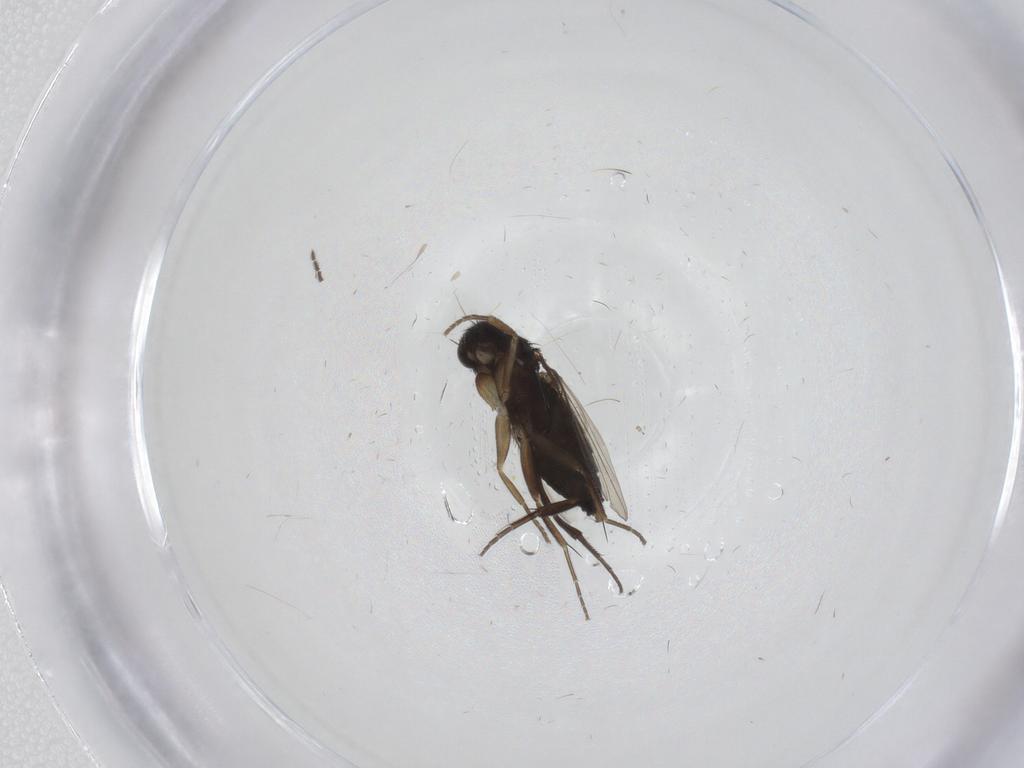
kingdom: Animalia
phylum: Arthropoda
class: Insecta
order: Diptera
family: Phoridae
